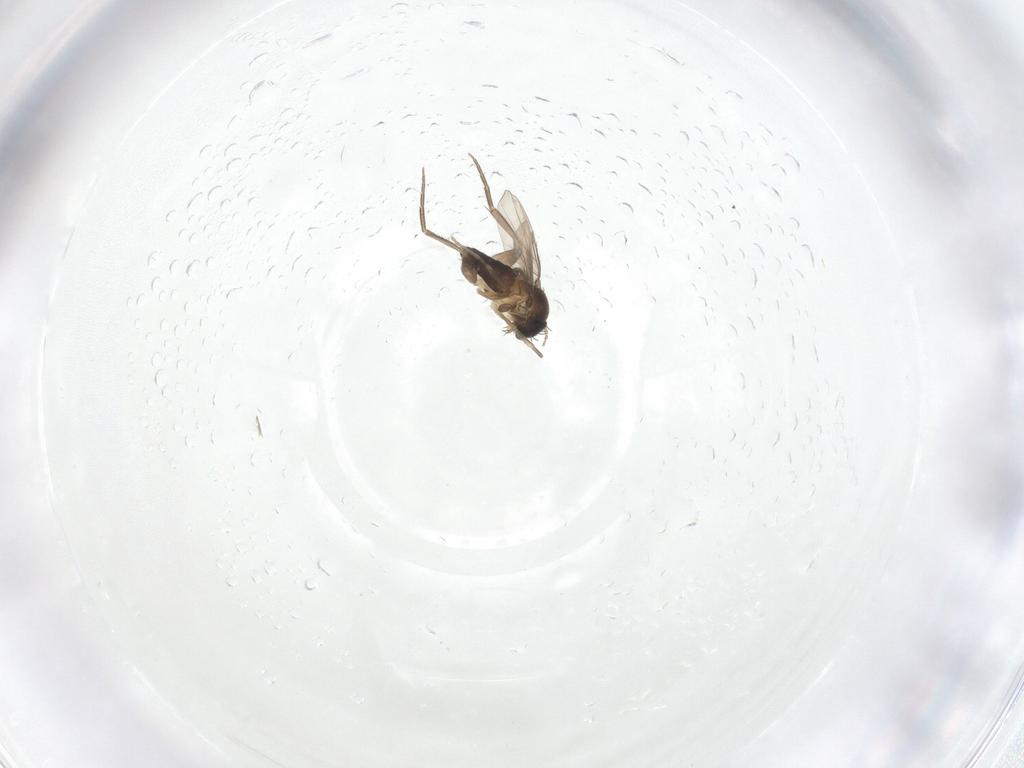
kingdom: Animalia
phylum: Arthropoda
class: Insecta
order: Diptera
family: Phoridae
